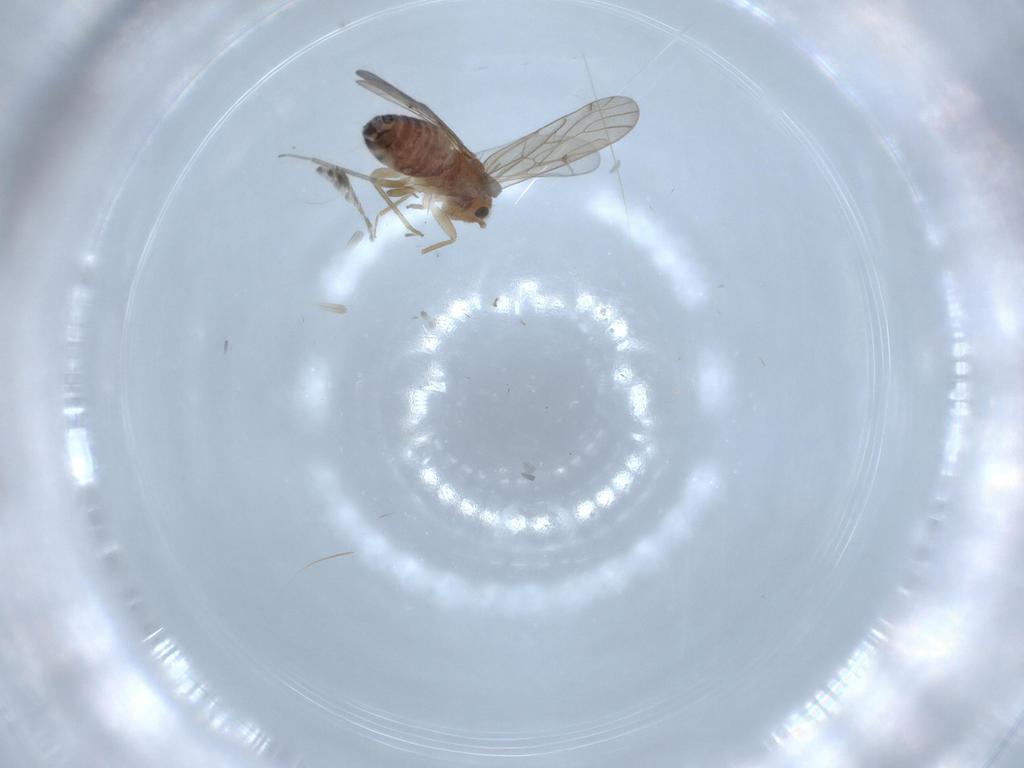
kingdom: Animalia
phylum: Arthropoda
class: Insecta
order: Psocodea
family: Ectopsocidae
